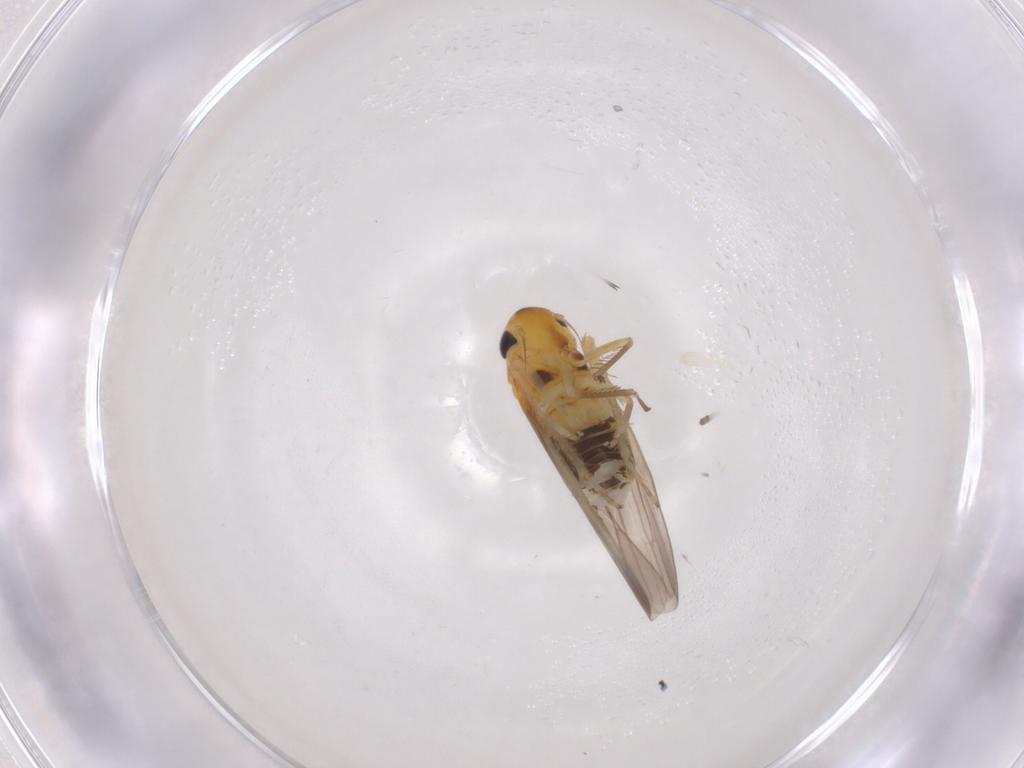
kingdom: Animalia
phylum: Arthropoda
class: Insecta
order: Hemiptera
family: Cicadellidae
